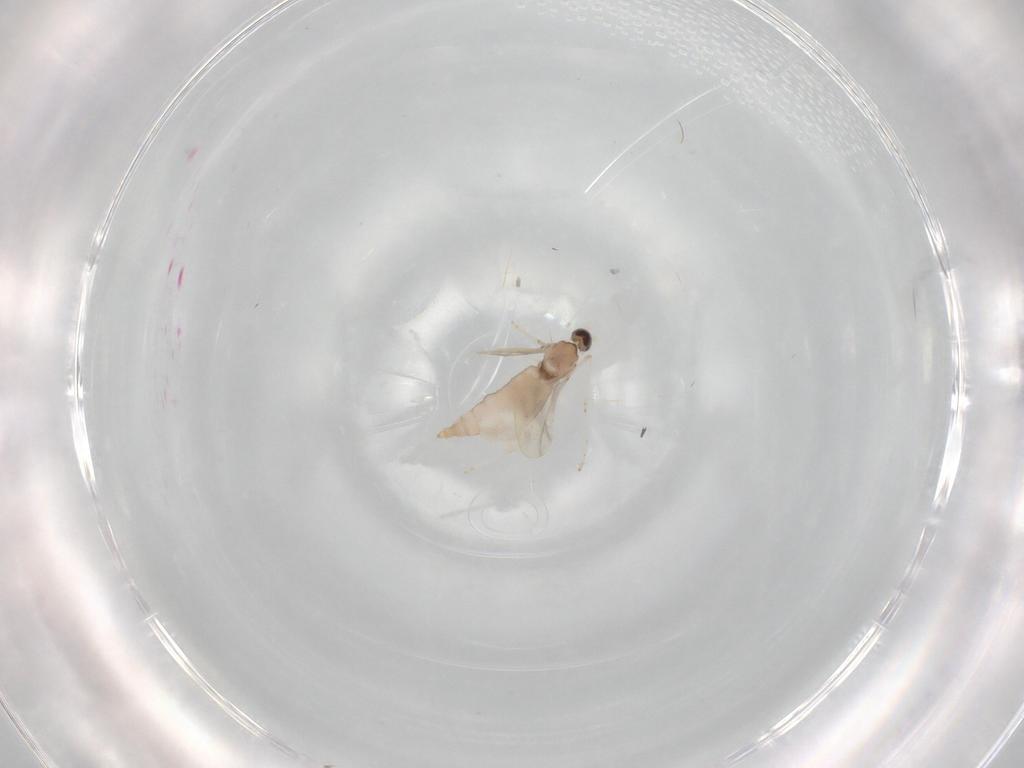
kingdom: Animalia
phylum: Arthropoda
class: Insecta
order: Diptera
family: Cecidomyiidae
